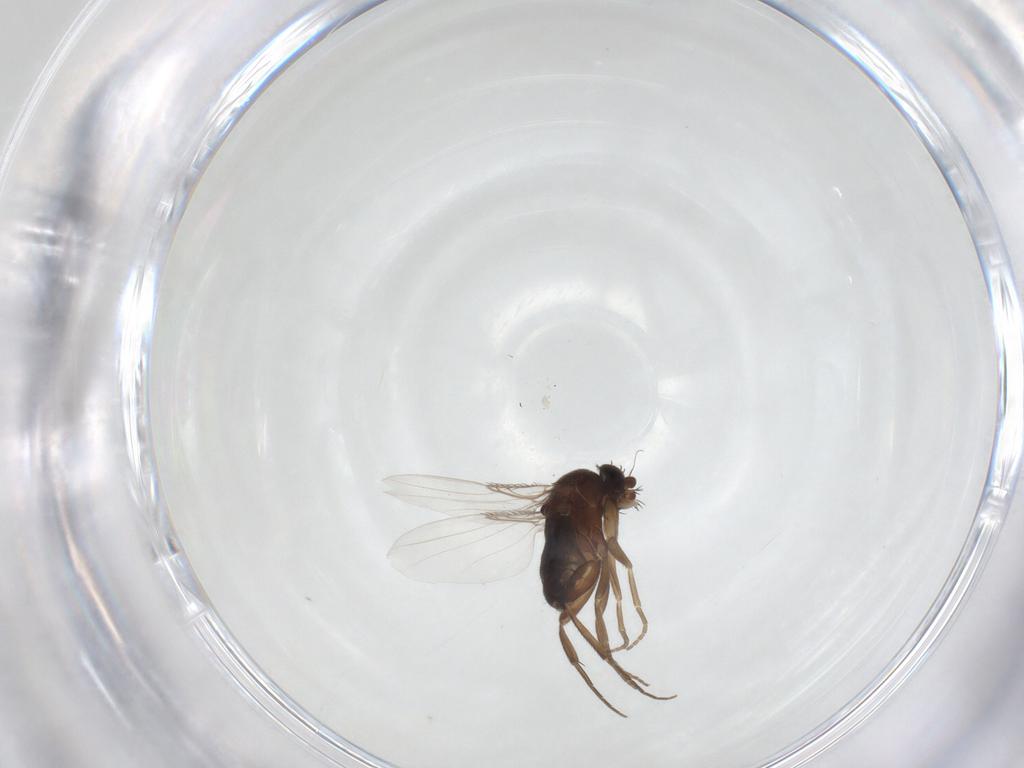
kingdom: Animalia
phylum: Arthropoda
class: Insecta
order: Diptera
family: Phoridae
